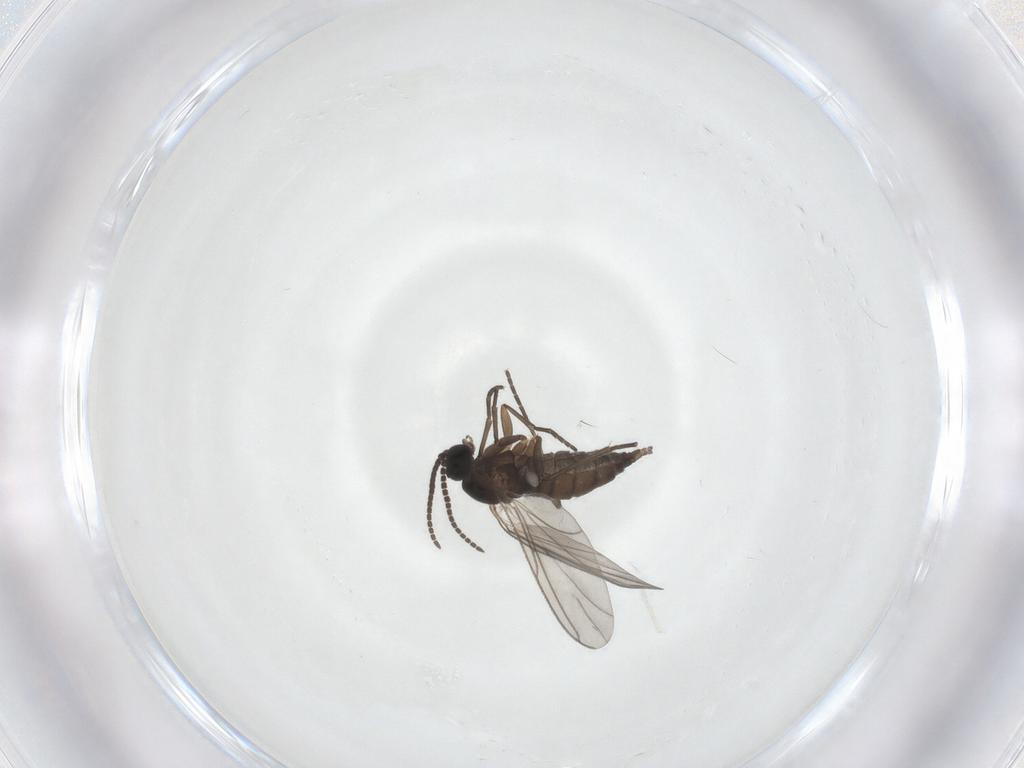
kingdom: Animalia
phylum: Arthropoda
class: Insecta
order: Diptera
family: Sciaridae
